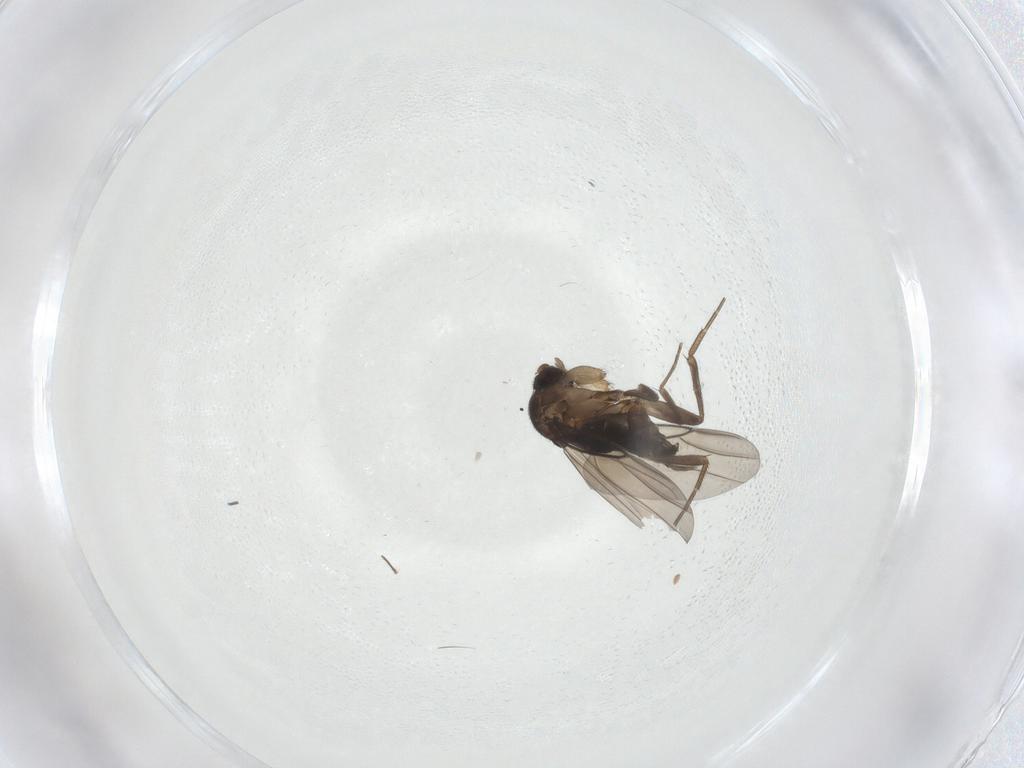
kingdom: Animalia
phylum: Arthropoda
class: Insecta
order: Diptera
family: Phoridae
